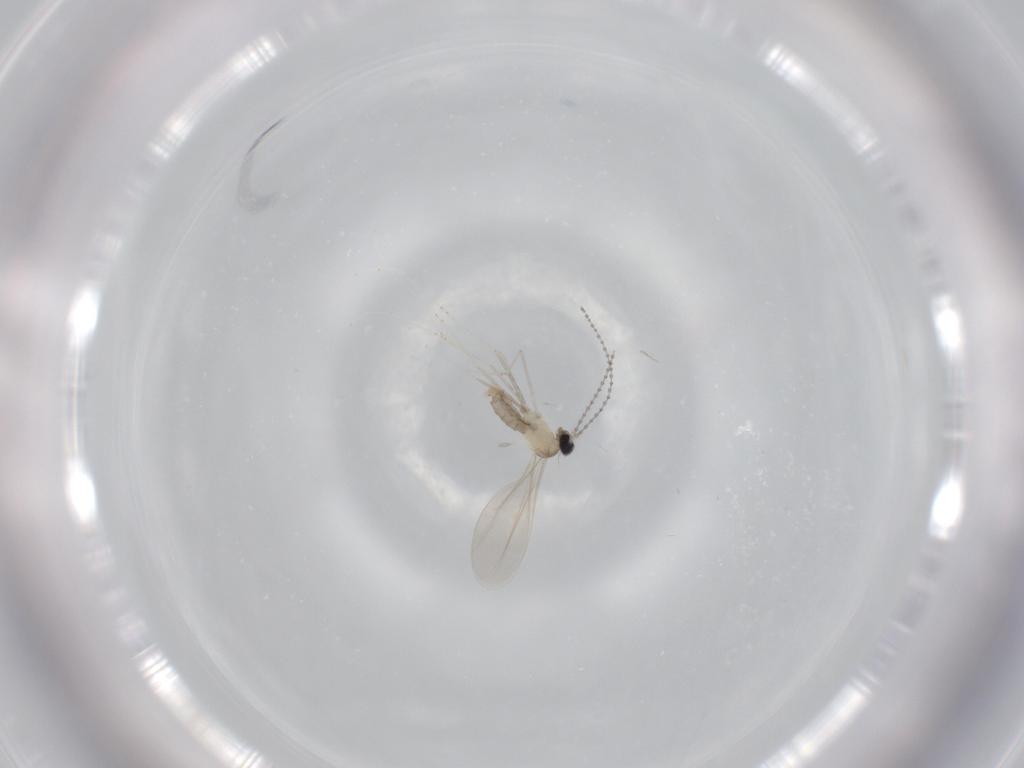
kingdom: Animalia
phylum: Arthropoda
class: Insecta
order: Diptera
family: Cecidomyiidae
